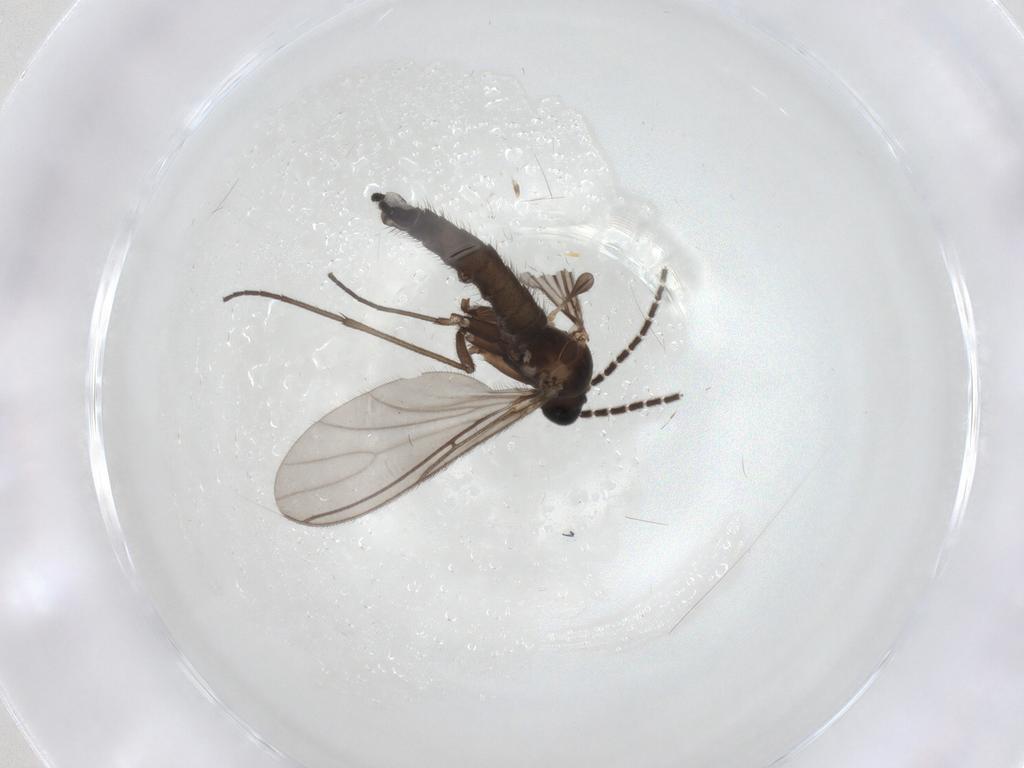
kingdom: Animalia
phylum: Arthropoda
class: Insecta
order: Diptera
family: Sciaridae
